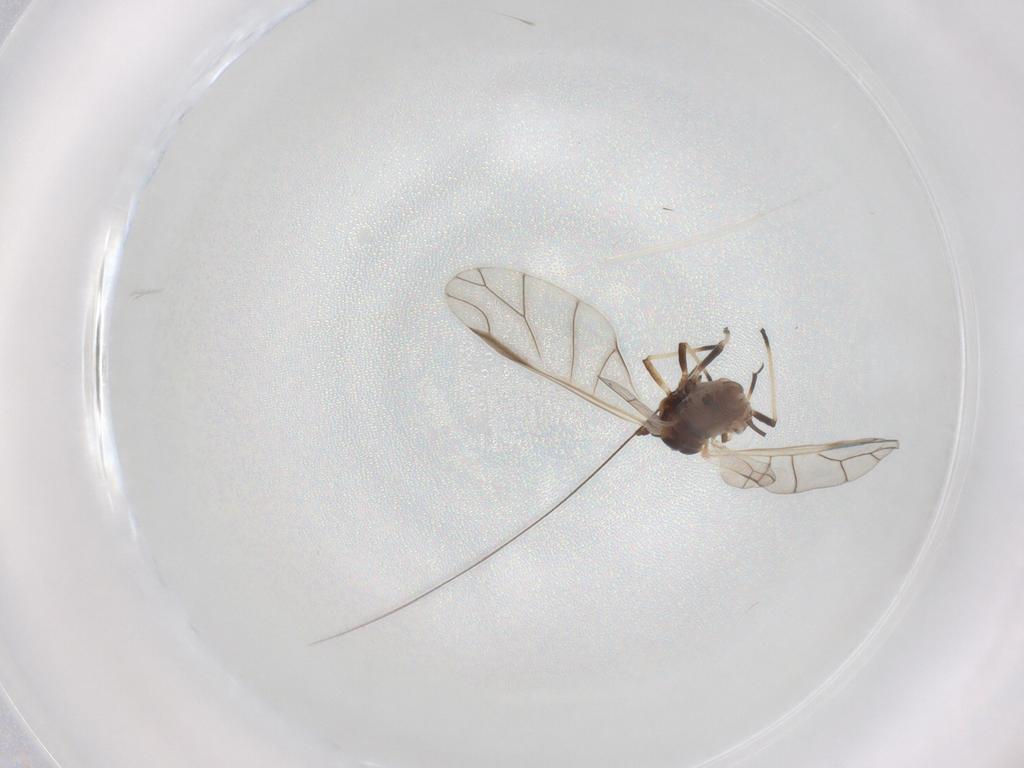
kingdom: Animalia
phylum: Arthropoda
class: Insecta
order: Hemiptera
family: Aphididae
